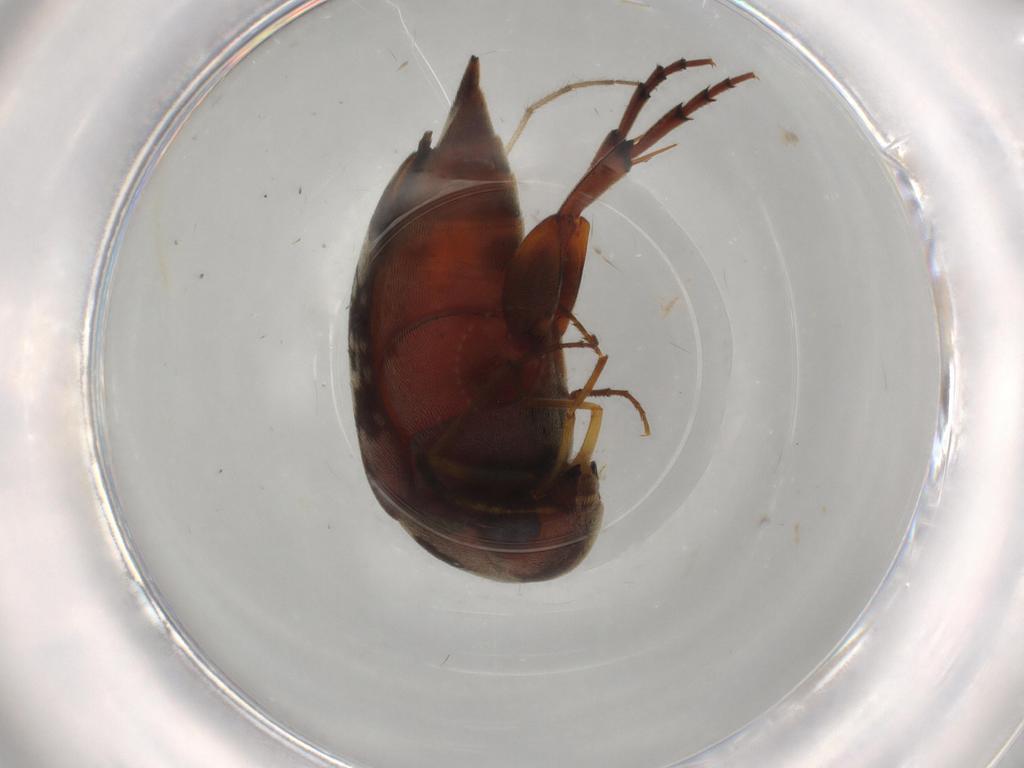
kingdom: Animalia
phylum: Arthropoda
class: Insecta
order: Coleoptera
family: Mordellidae
